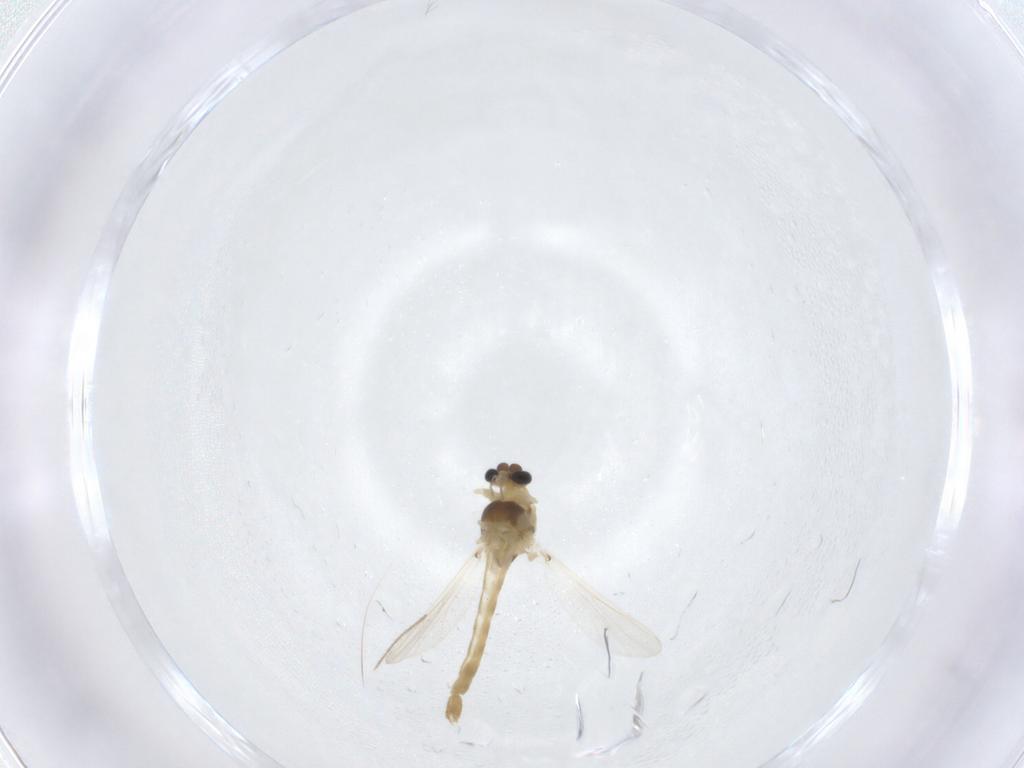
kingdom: Animalia
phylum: Arthropoda
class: Insecta
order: Diptera
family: Chironomidae
